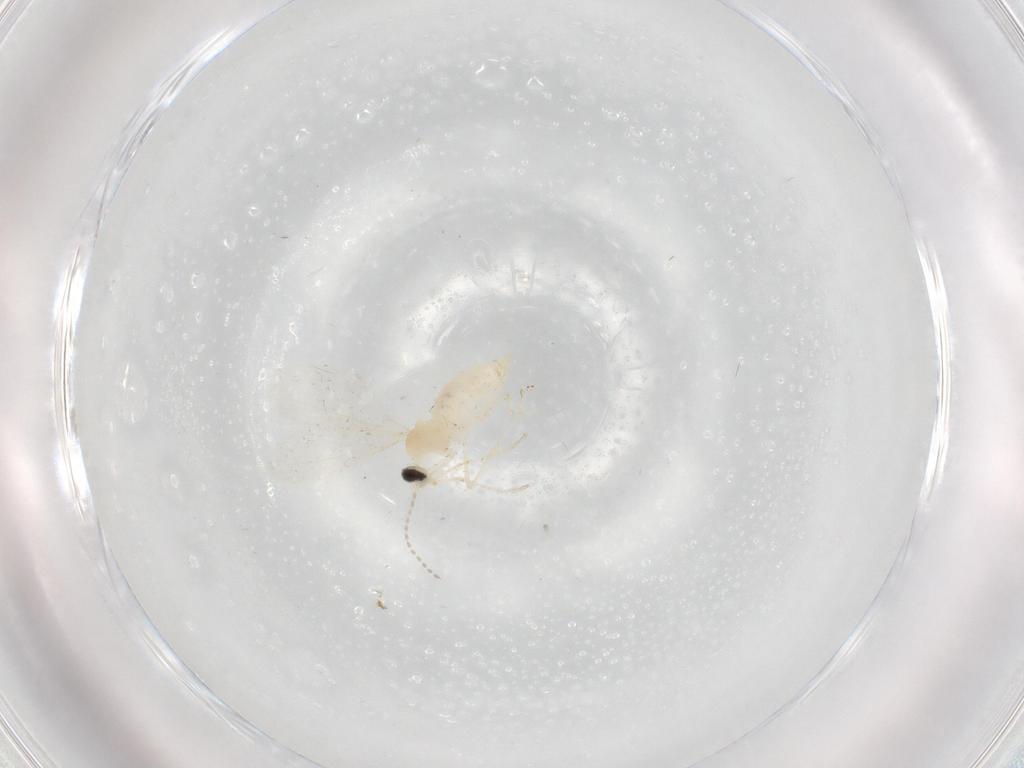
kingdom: Animalia
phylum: Arthropoda
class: Insecta
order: Diptera
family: Cecidomyiidae
